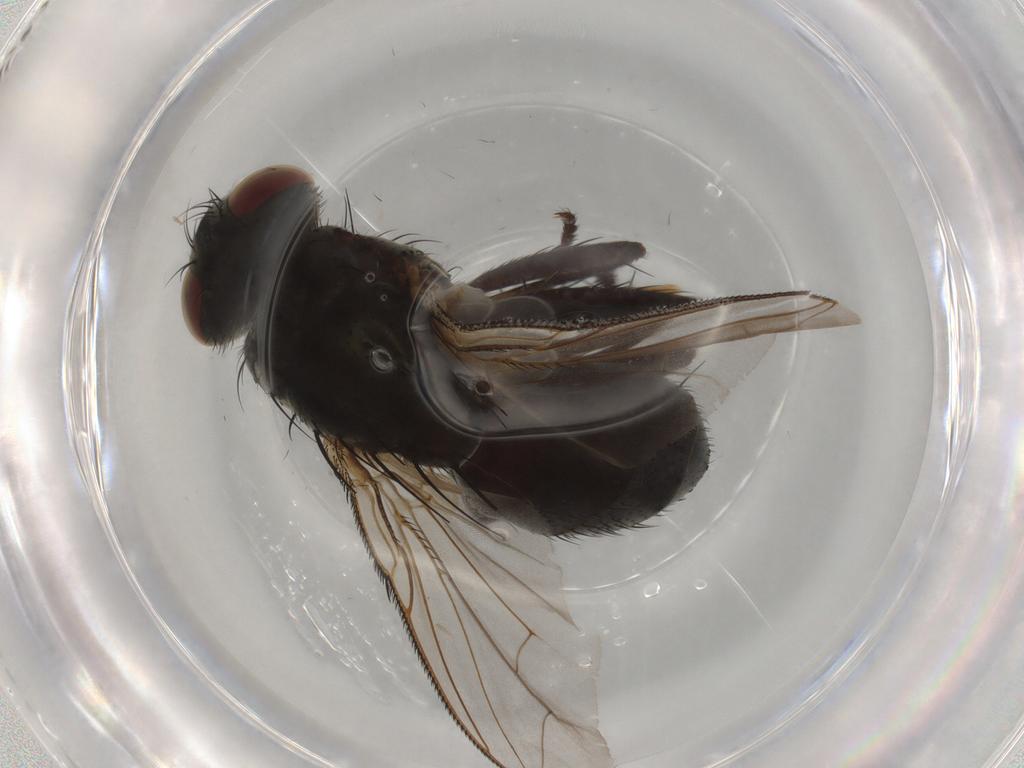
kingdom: Animalia
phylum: Arthropoda
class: Insecta
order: Diptera
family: Sarcophagidae
